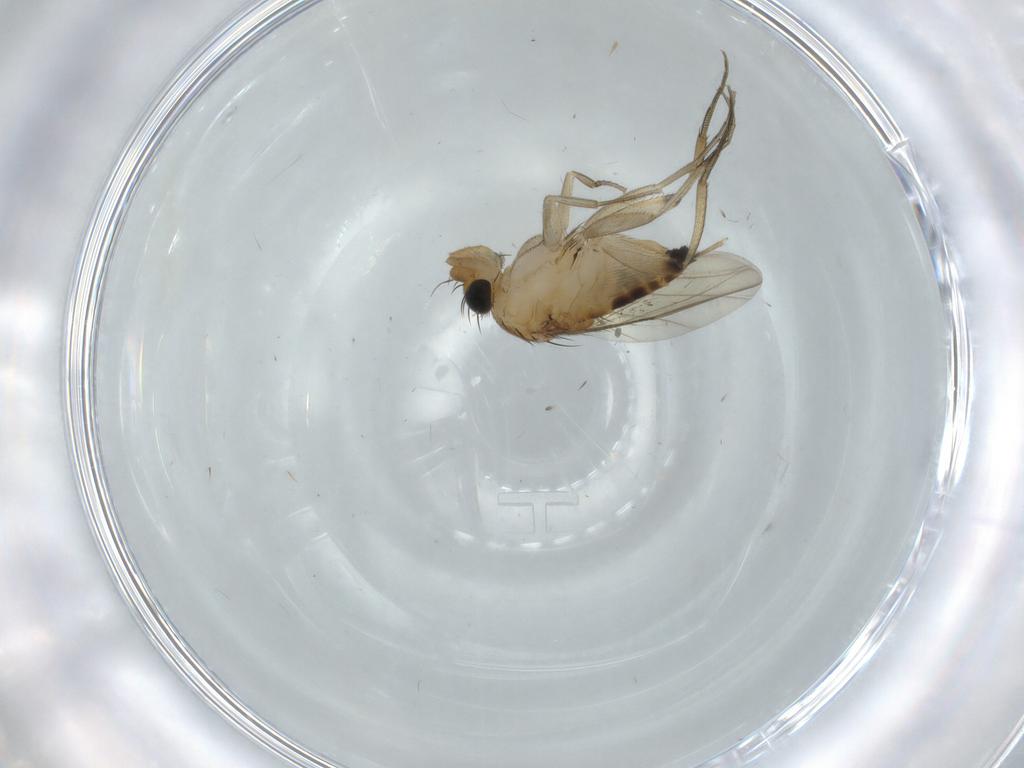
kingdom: Animalia
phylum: Arthropoda
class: Insecta
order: Diptera
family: Phoridae
